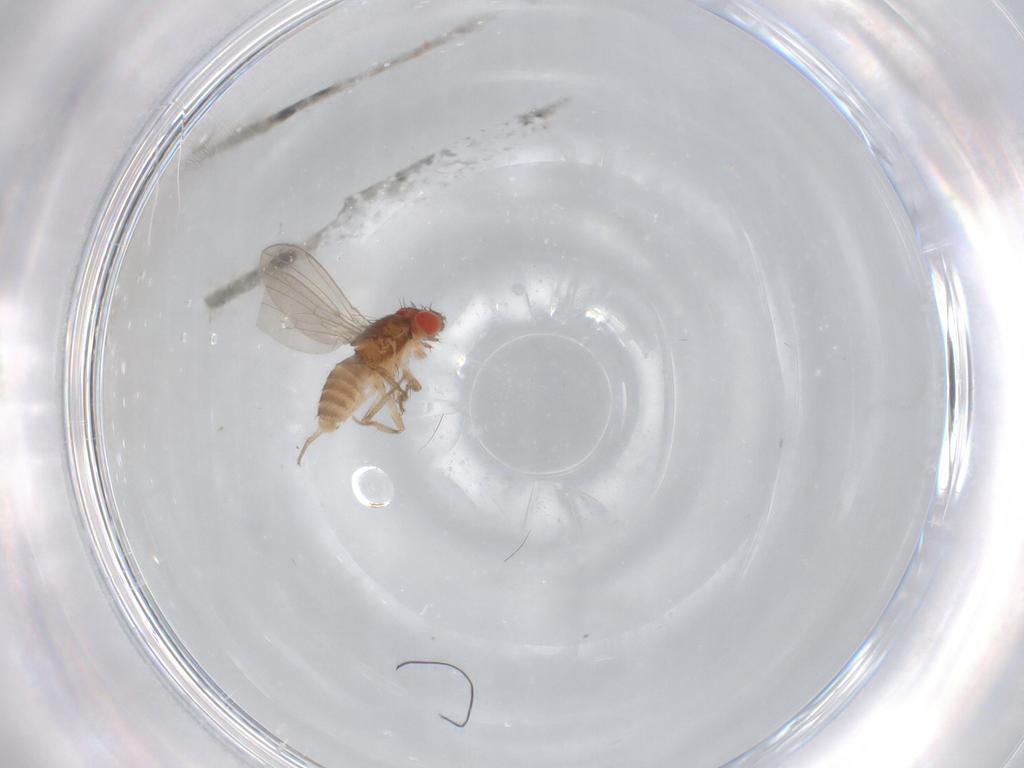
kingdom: Animalia
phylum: Arthropoda
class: Insecta
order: Diptera
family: Drosophilidae
